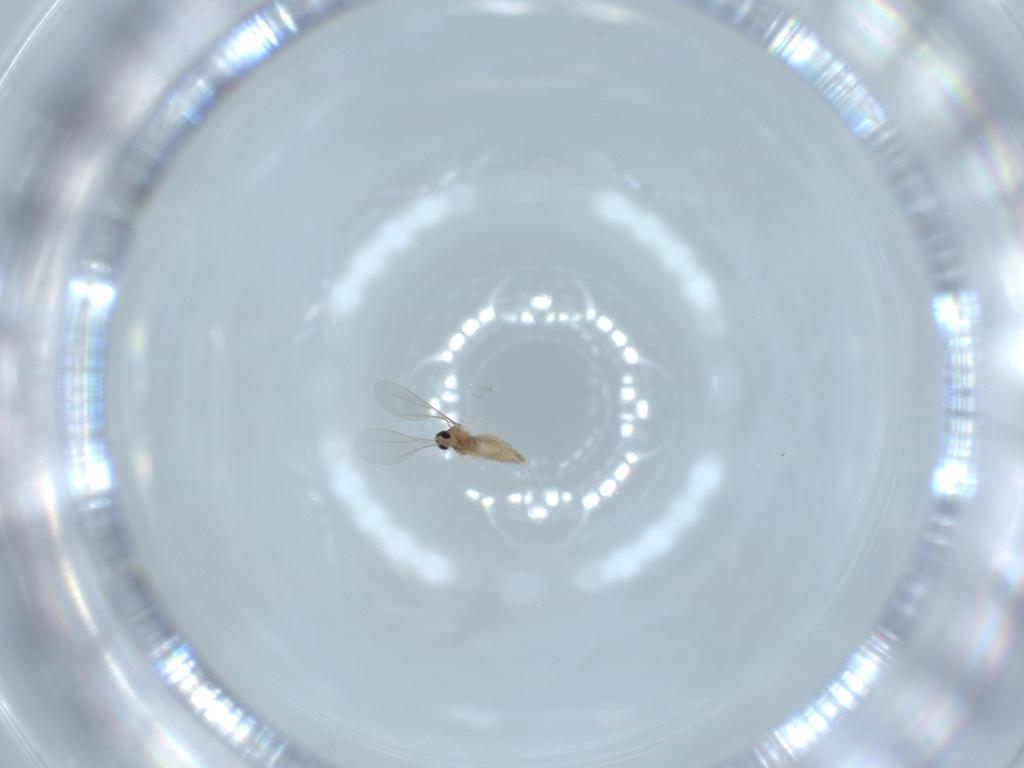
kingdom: Animalia
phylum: Arthropoda
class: Insecta
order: Diptera
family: Cecidomyiidae
